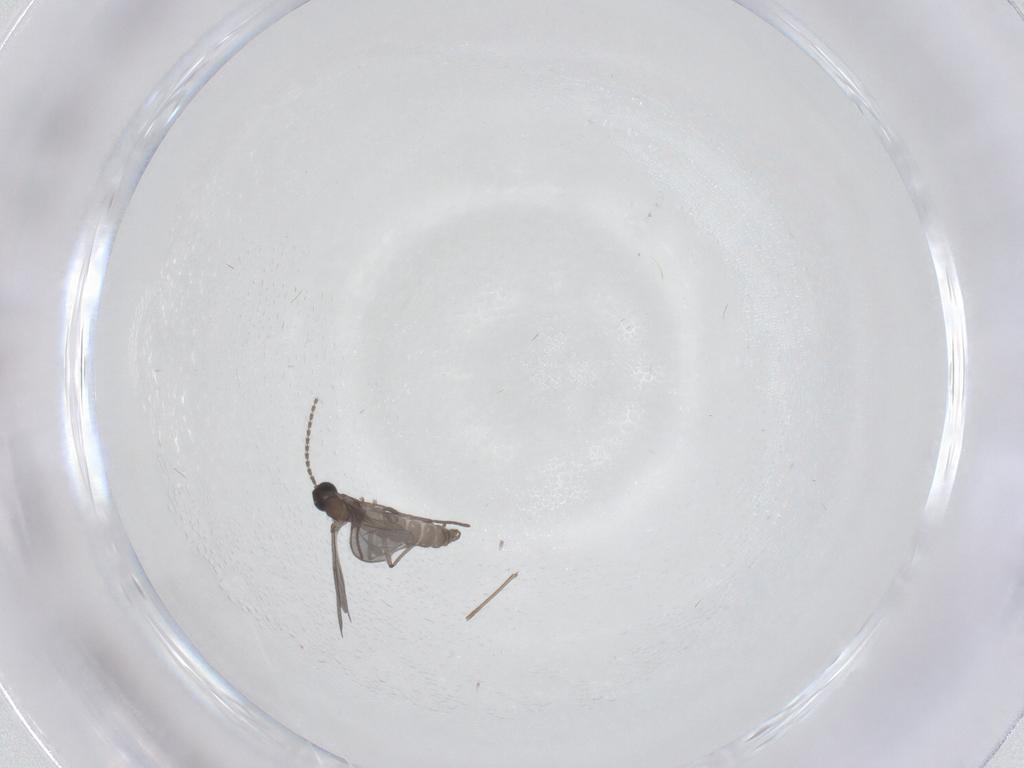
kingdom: Animalia
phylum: Arthropoda
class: Insecta
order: Diptera
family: Sciaridae
